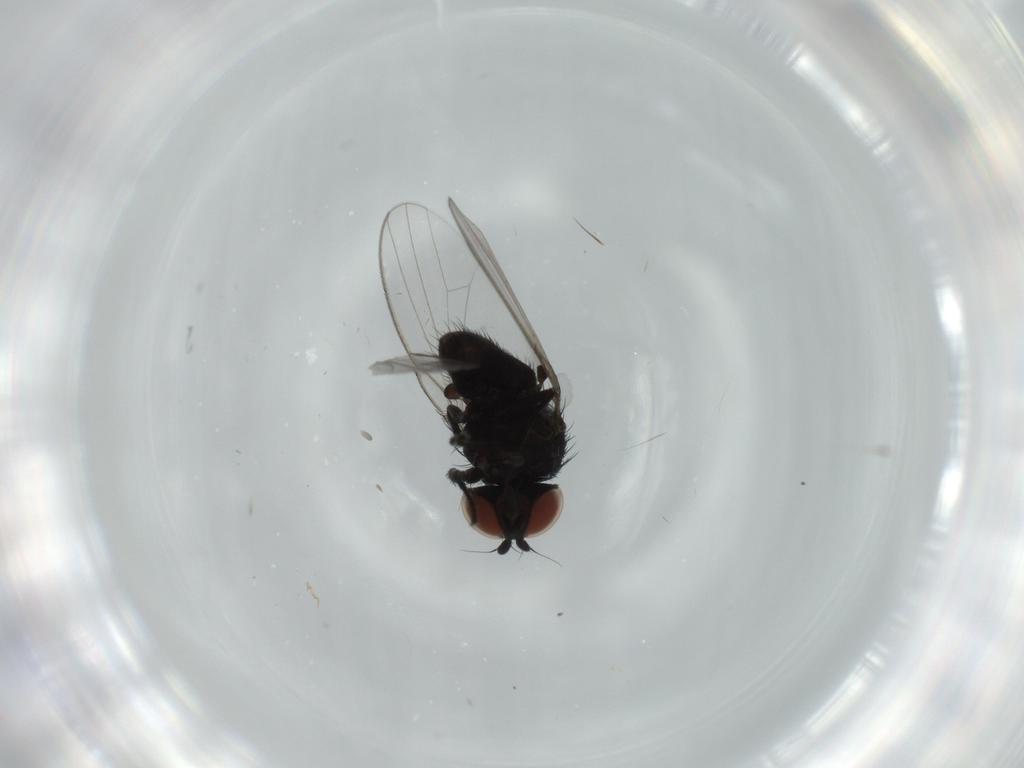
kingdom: Animalia
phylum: Arthropoda
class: Insecta
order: Diptera
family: Milichiidae
